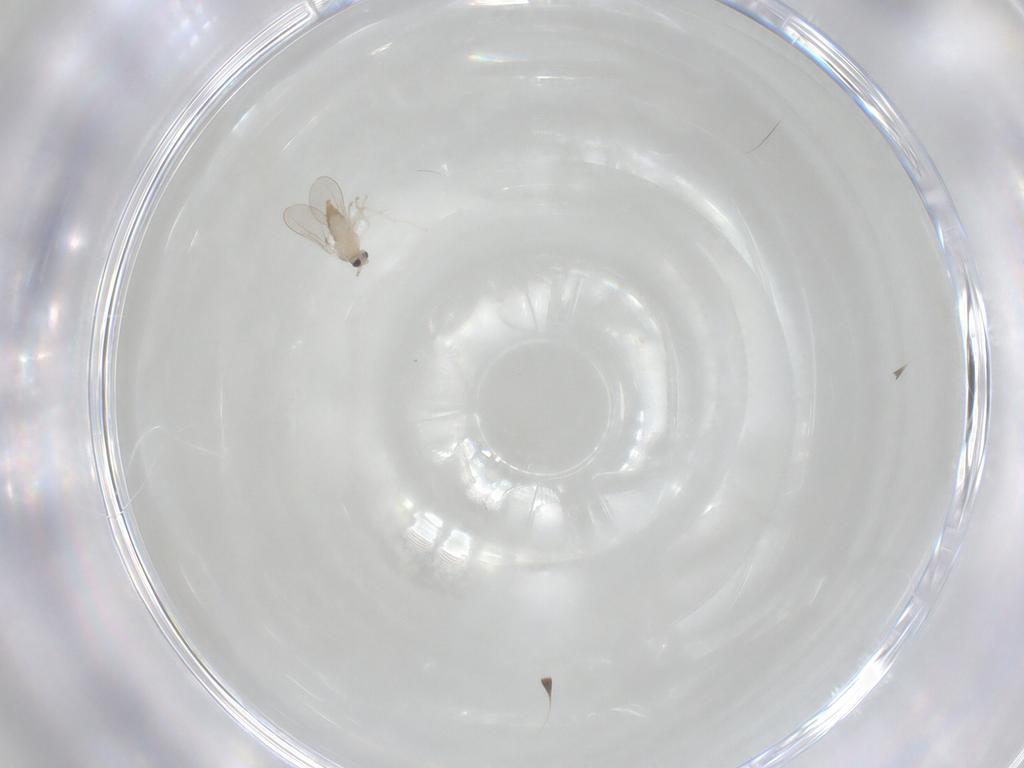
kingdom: Animalia
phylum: Arthropoda
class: Insecta
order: Diptera
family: Cecidomyiidae
